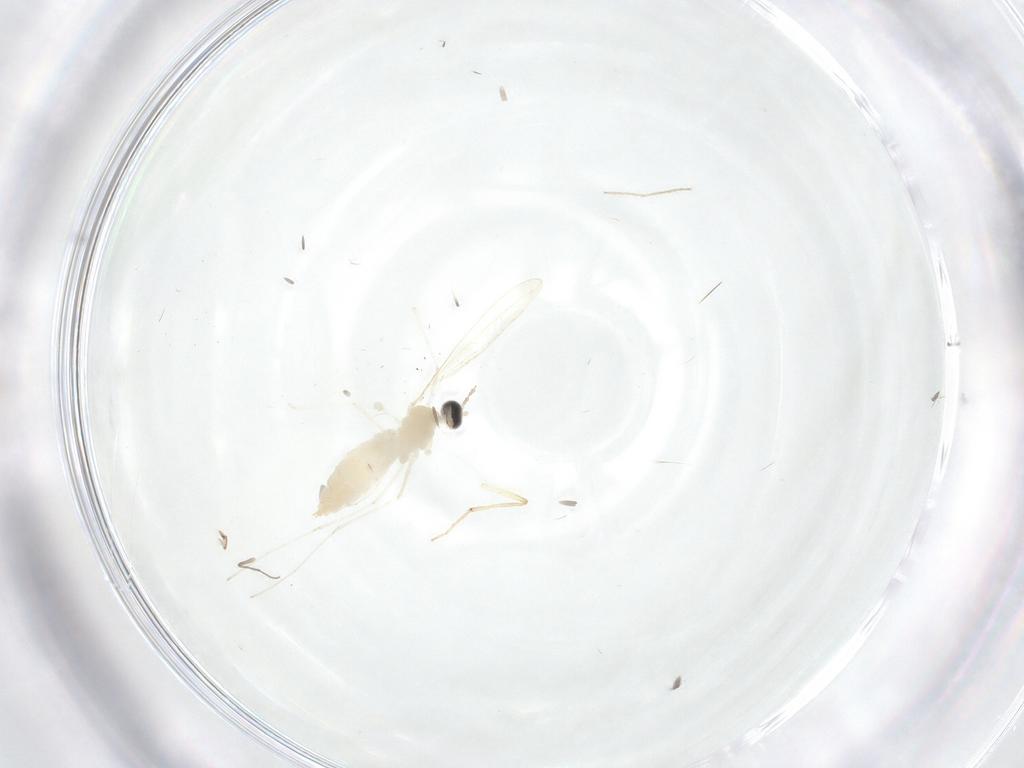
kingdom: Animalia
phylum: Arthropoda
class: Insecta
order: Diptera
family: Cecidomyiidae
